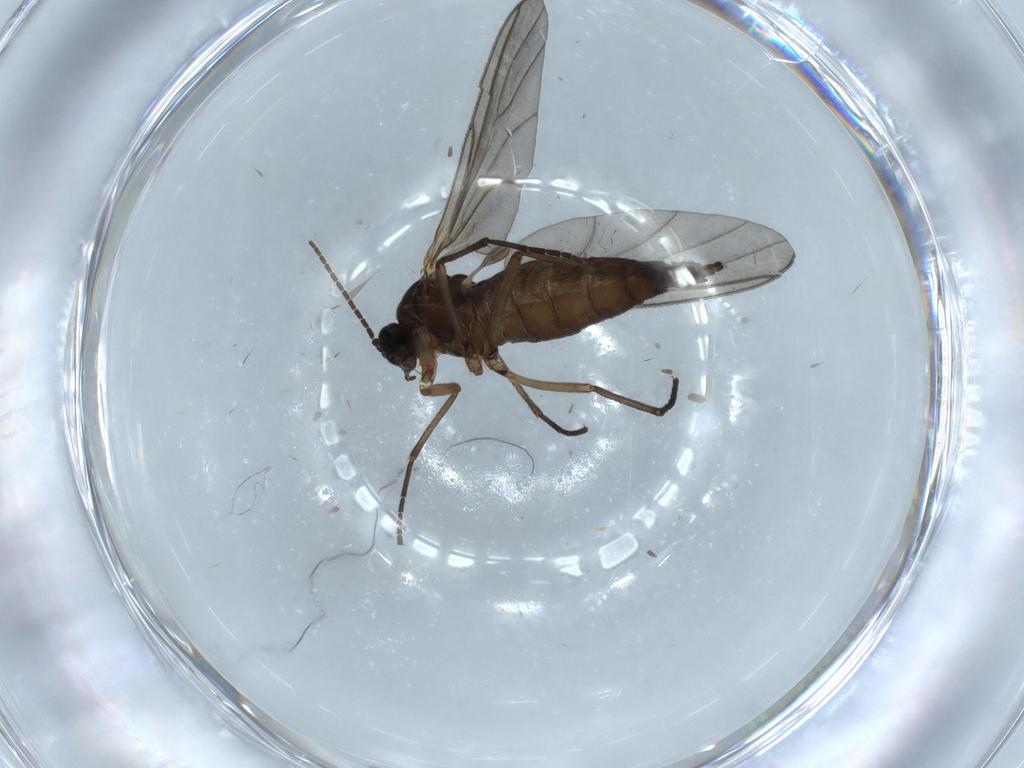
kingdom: Animalia
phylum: Arthropoda
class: Insecta
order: Diptera
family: Sciaridae
